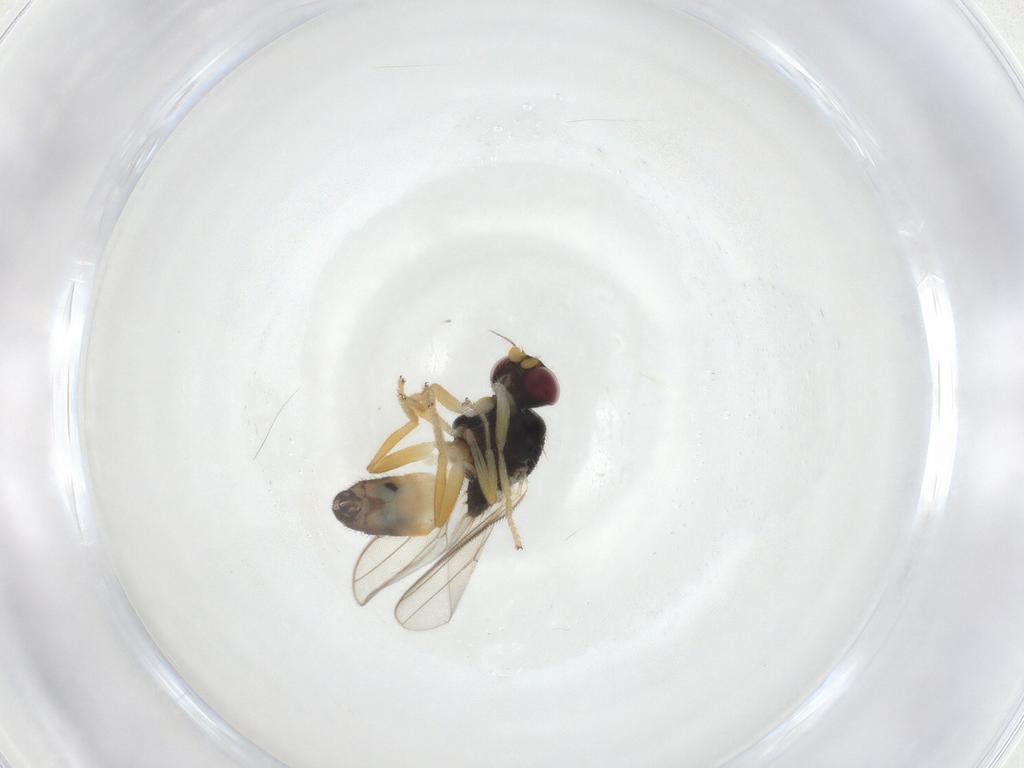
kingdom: Animalia
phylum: Arthropoda
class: Insecta
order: Diptera
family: Chloropidae
